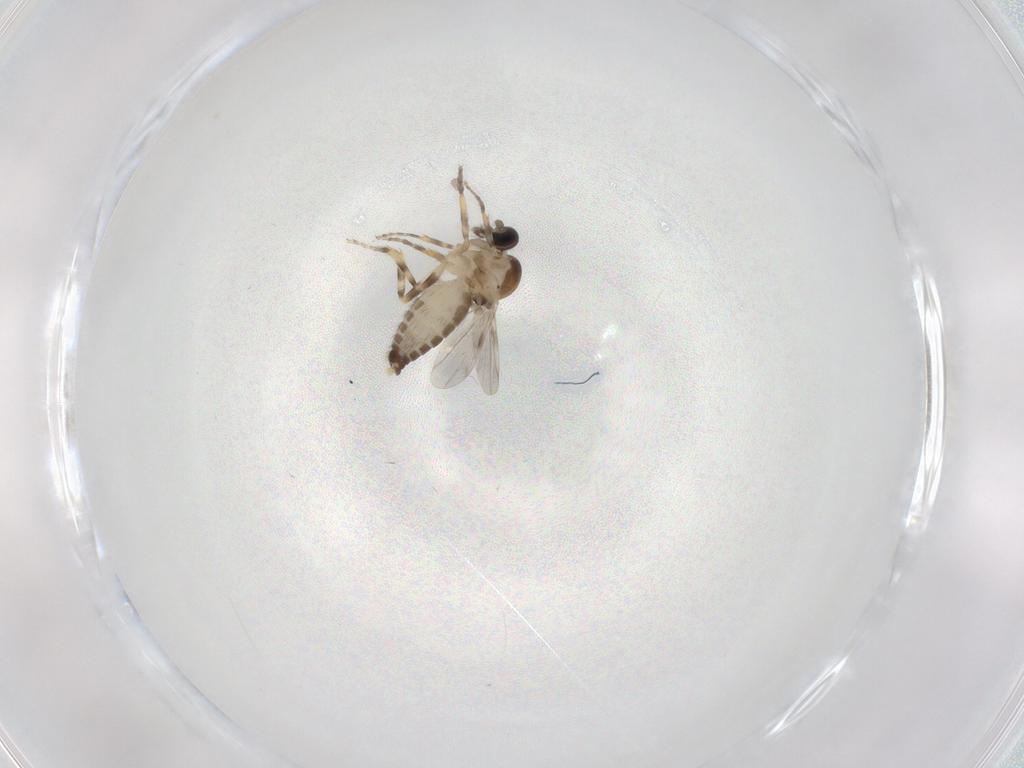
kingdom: Animalia
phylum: Arthropoda
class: Insecta
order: Diptera
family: Ceratopogonidae
